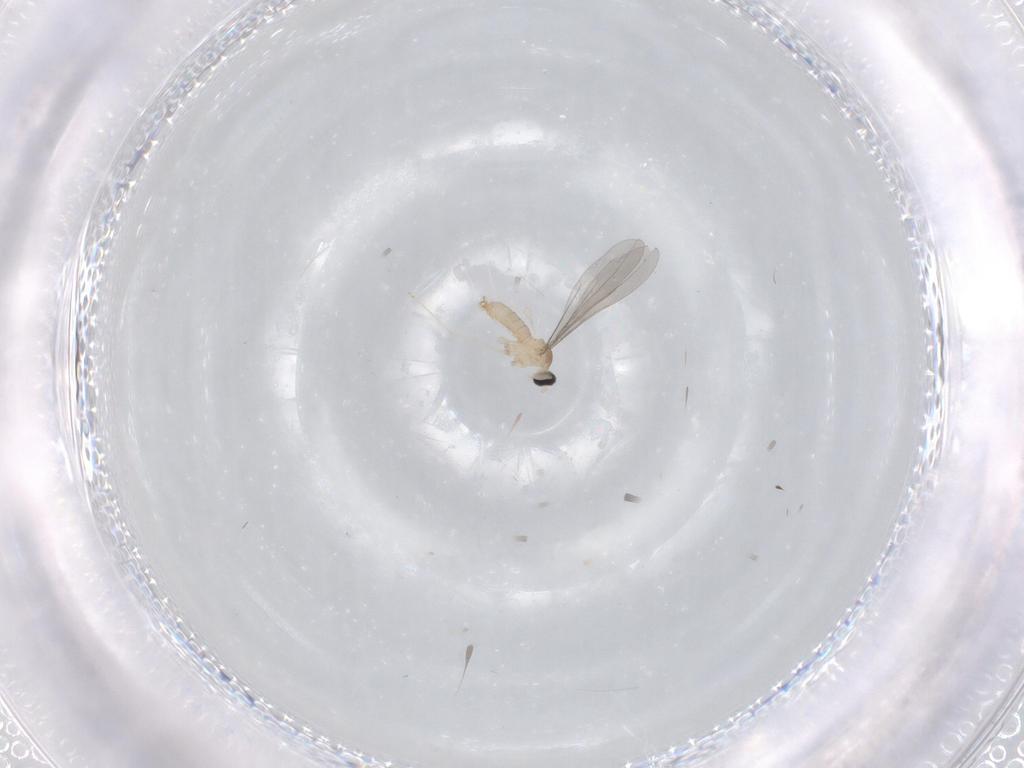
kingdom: Animalia
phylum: Arthropoda
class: Insecta
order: Diptera
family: Cecidomyiidae
